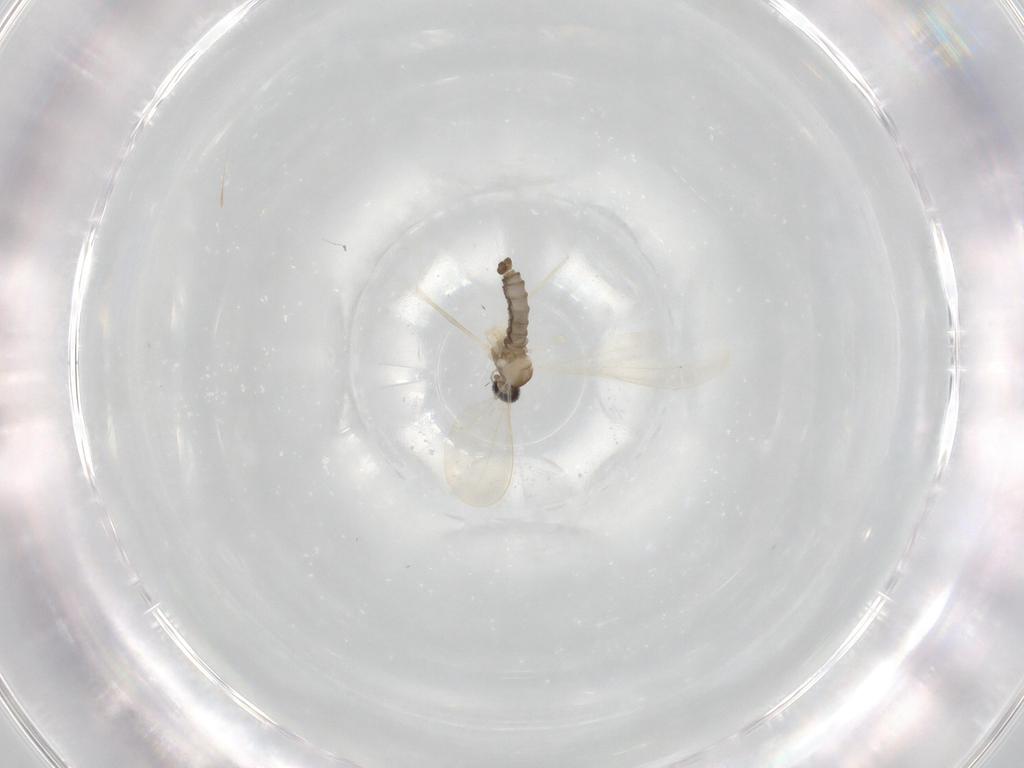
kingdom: Animalia
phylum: Arthropoda
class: Insecta
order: Diptera
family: Cecidomyiidae
